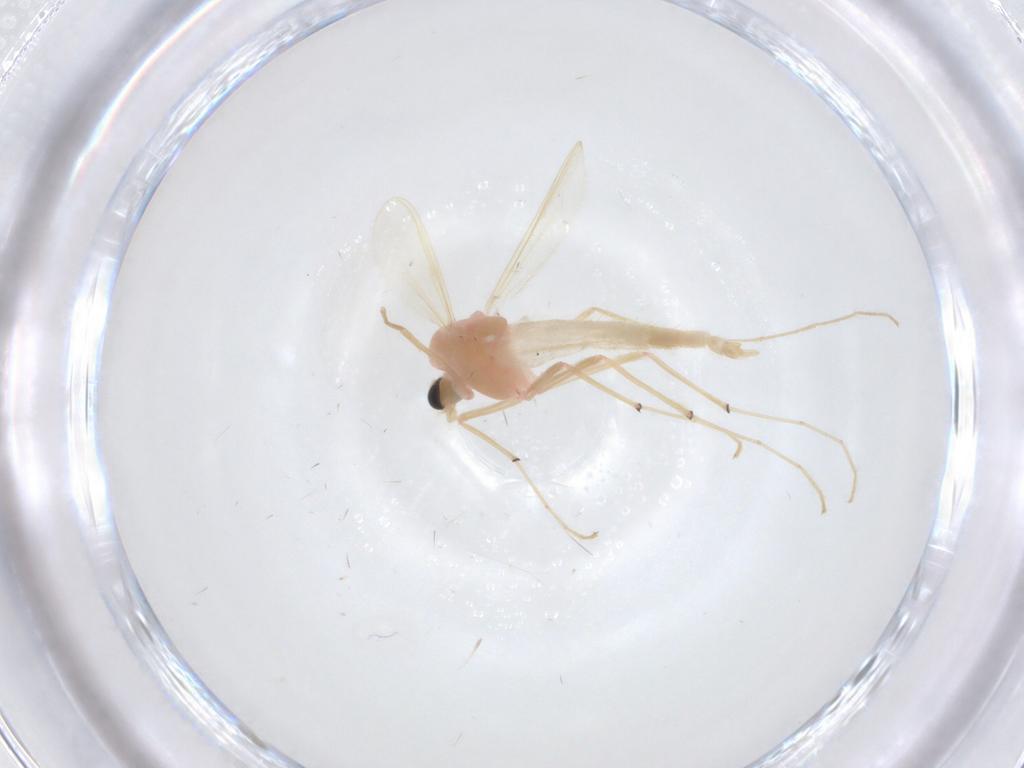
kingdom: Animalia
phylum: Arthropoda
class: Insecta
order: Diptera
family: Chironomidae
